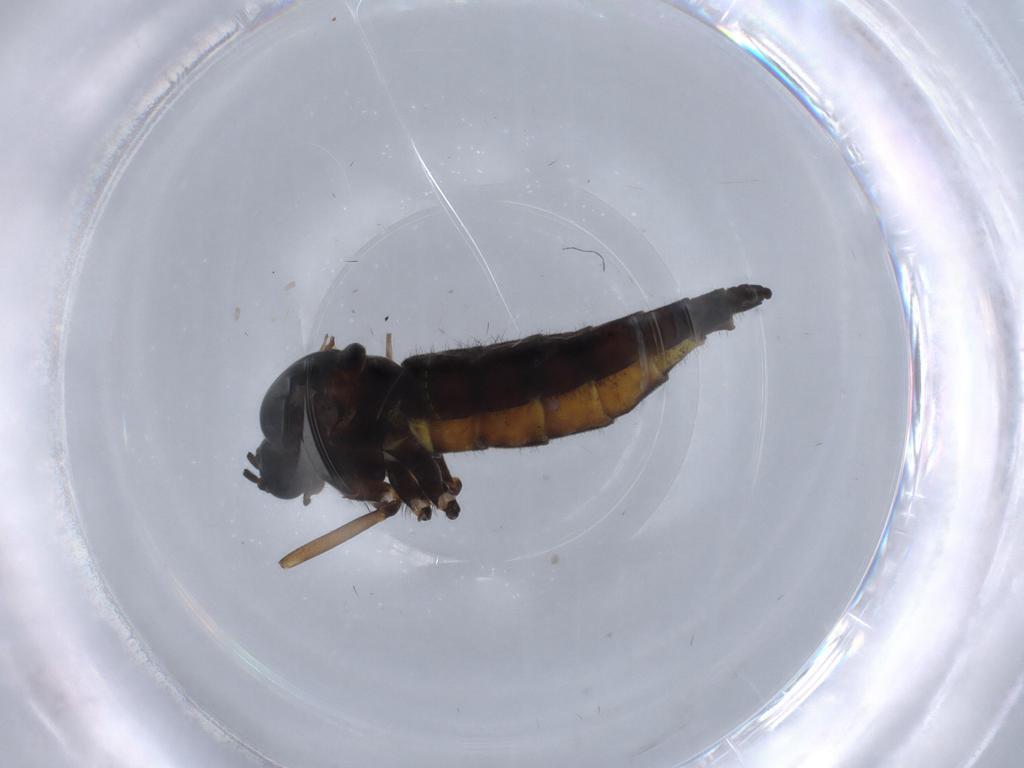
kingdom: Animalia
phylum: Arthropoda
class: Insecta
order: Diptera
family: Sciaridae
